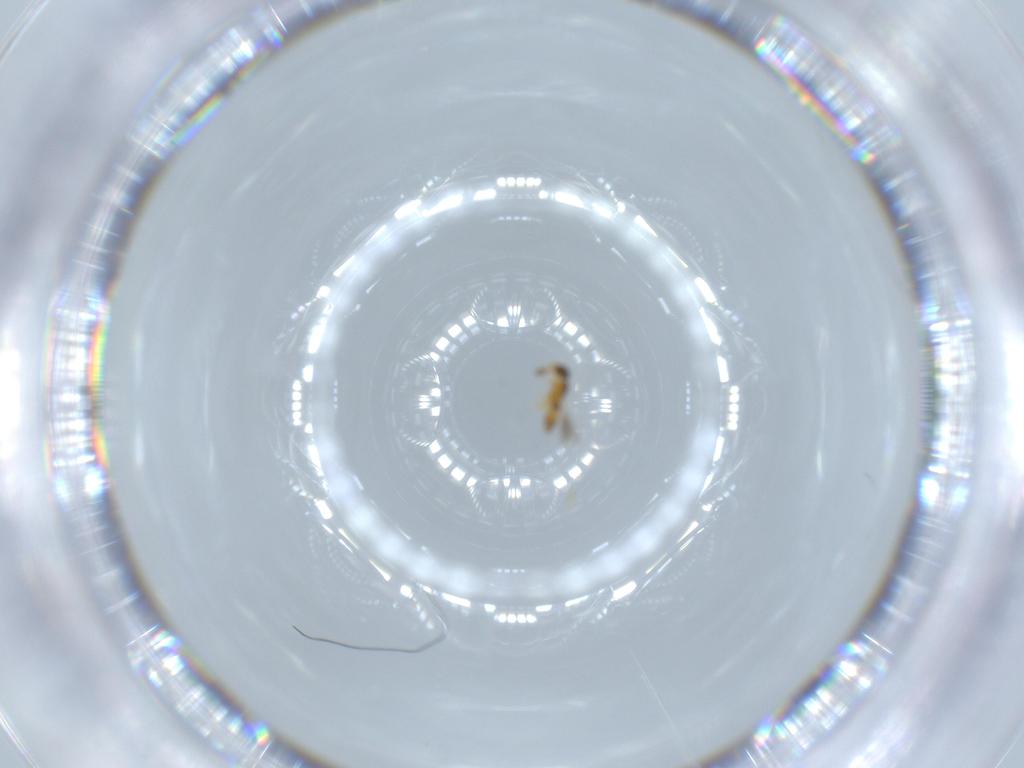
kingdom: Animalia
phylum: Arthropoda
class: Insecta
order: Hymenoptera
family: Platygastridae
